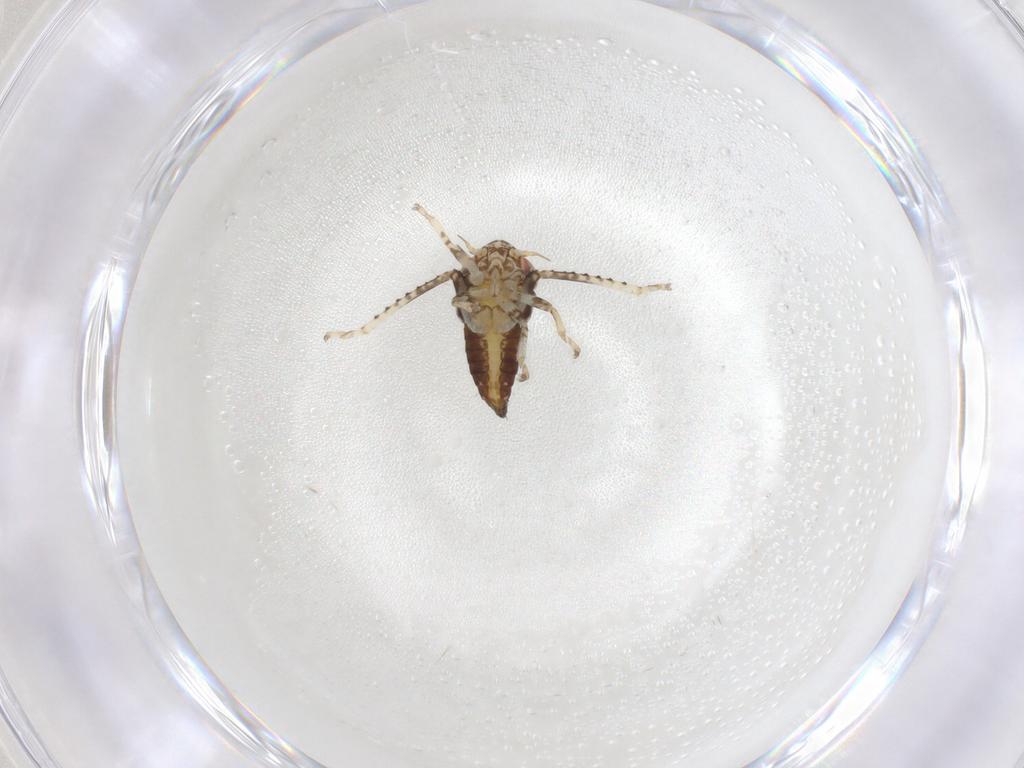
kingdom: Animalia
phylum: Arthropoda
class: Insecta
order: Hemiptera
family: Cicadellidae
